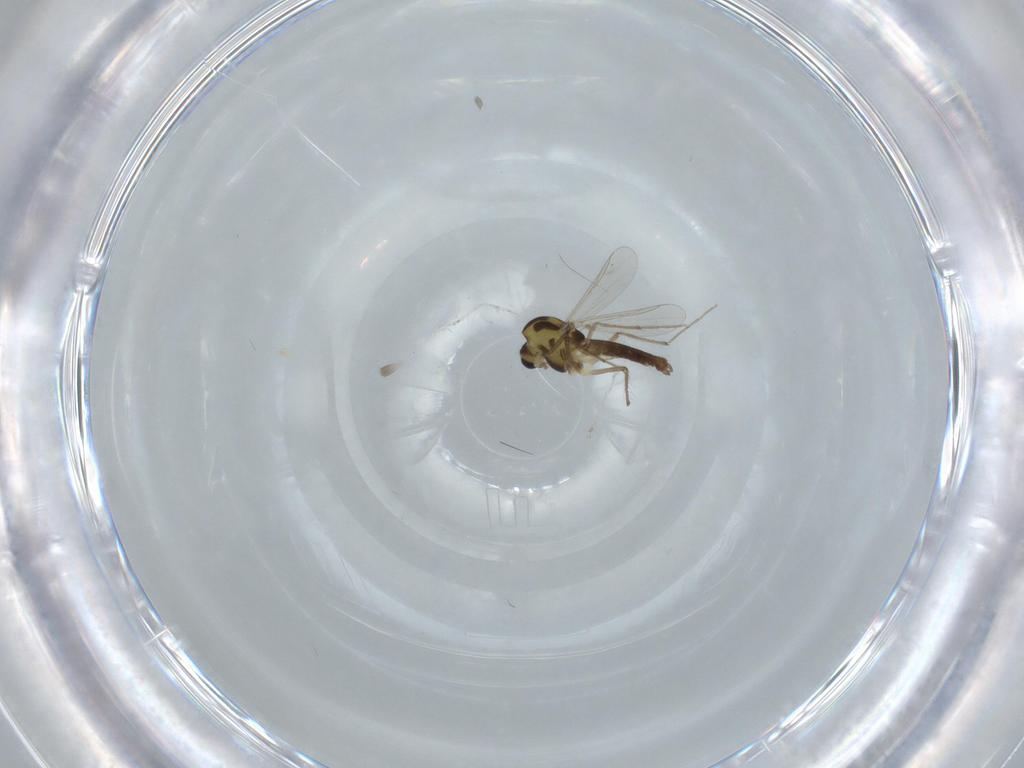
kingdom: Animalia
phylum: Arthropoda
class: Insecta
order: Diptera
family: Chironomidae
